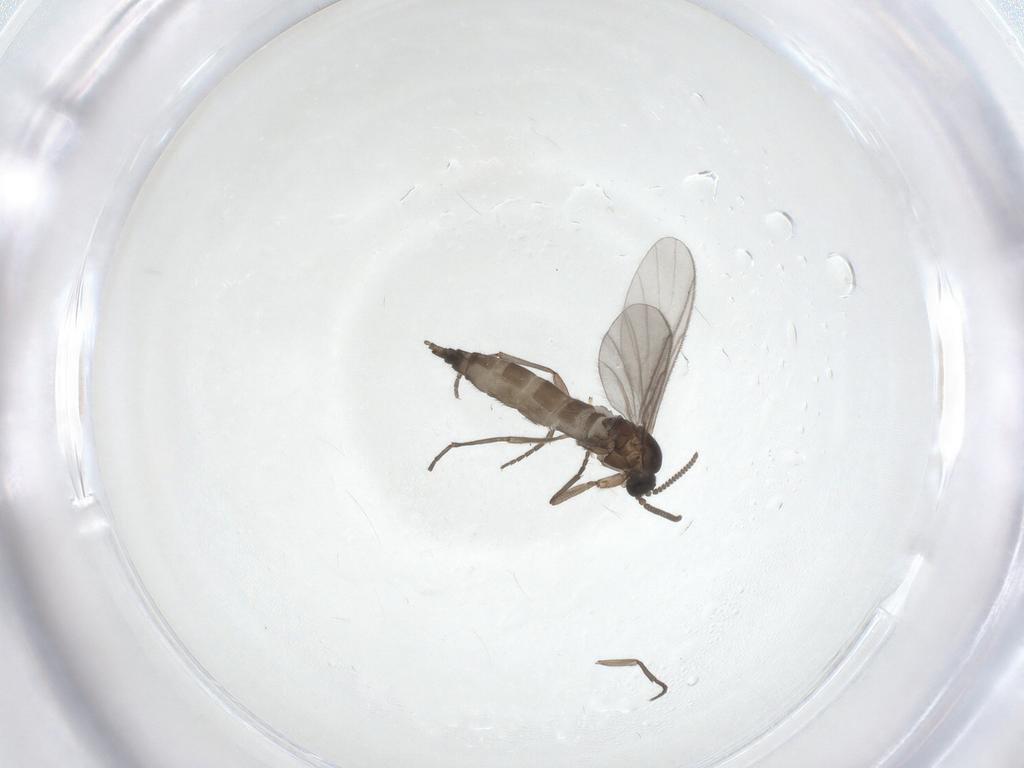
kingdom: Animalia
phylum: Arthropoda
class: Insecta
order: Diptera
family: Sciaridae
